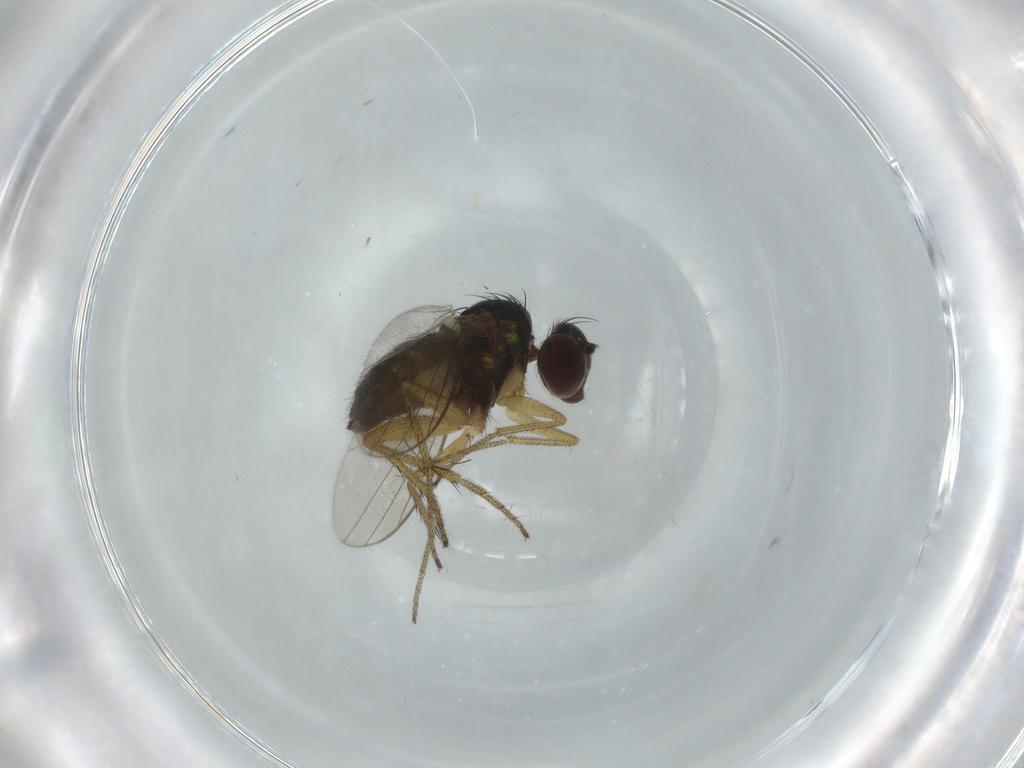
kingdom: Animalia
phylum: Arthropoda
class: Insecta
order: Diptera
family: Dolichopodidae
